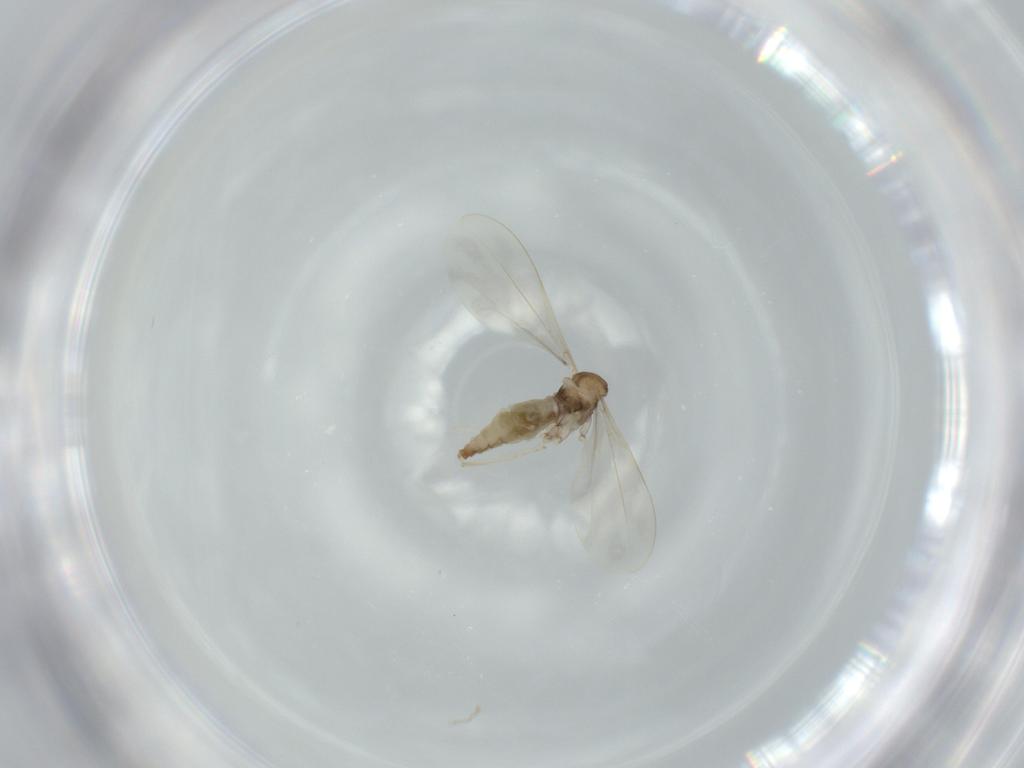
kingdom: Animalia
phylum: Arthropoda
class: Insecta
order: Diptera
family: Cecidomyiidae
